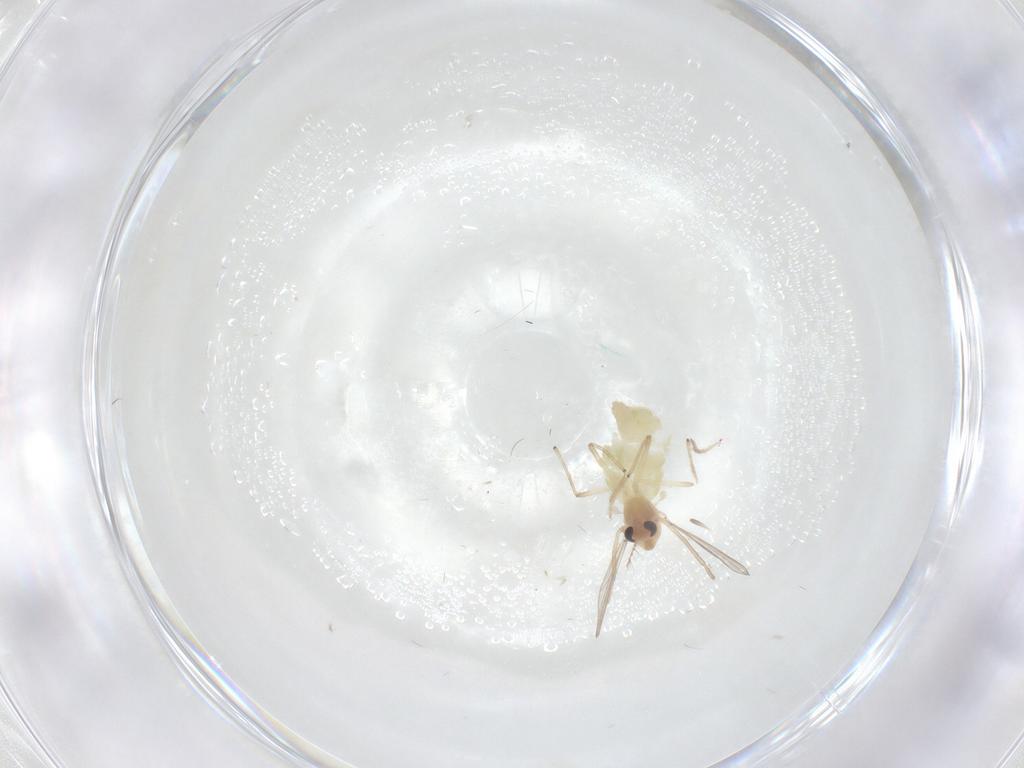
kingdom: Animalia
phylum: Arthropoda
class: Insecta
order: Diptera
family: Chironomidae
